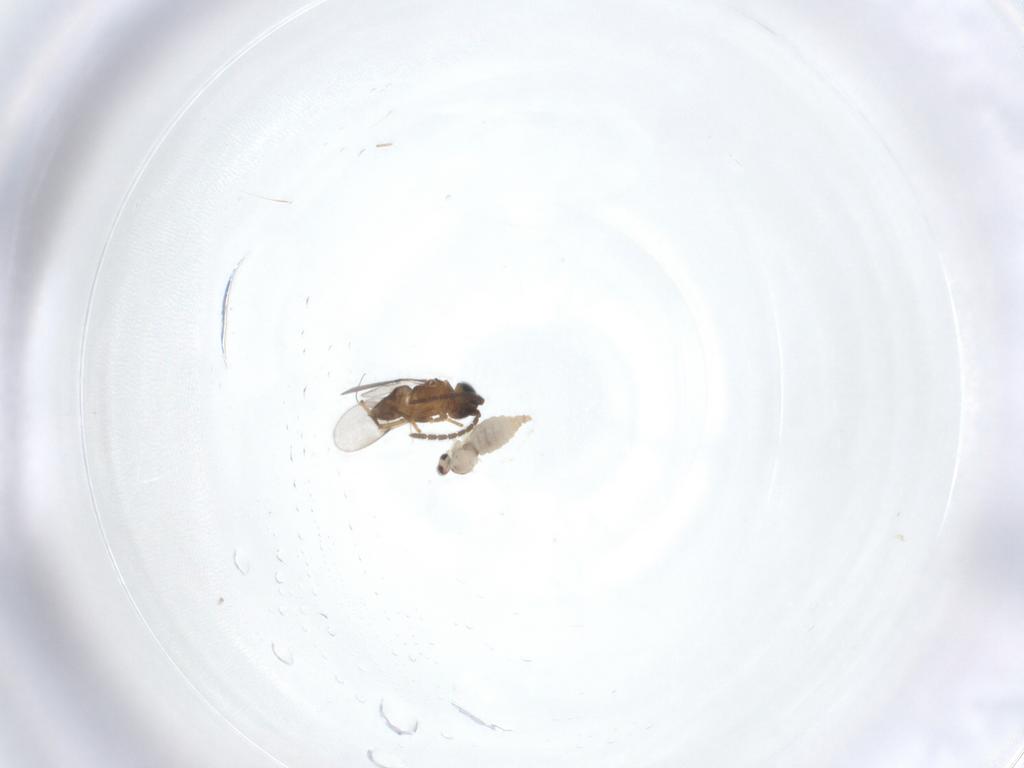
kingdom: Animalia
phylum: Arthropoda
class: Insecta
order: Diptera
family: Cecidomyiidae
